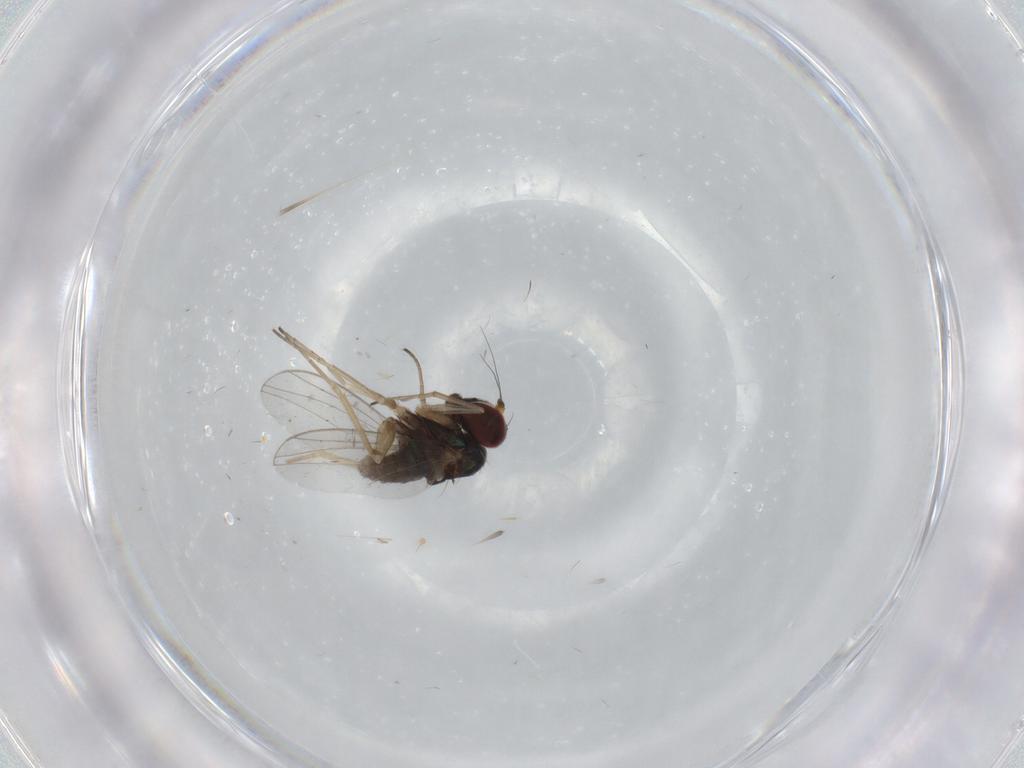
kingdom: Animalia
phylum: Arthropoda
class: Insecta
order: Diptera
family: Dolichopodidae
